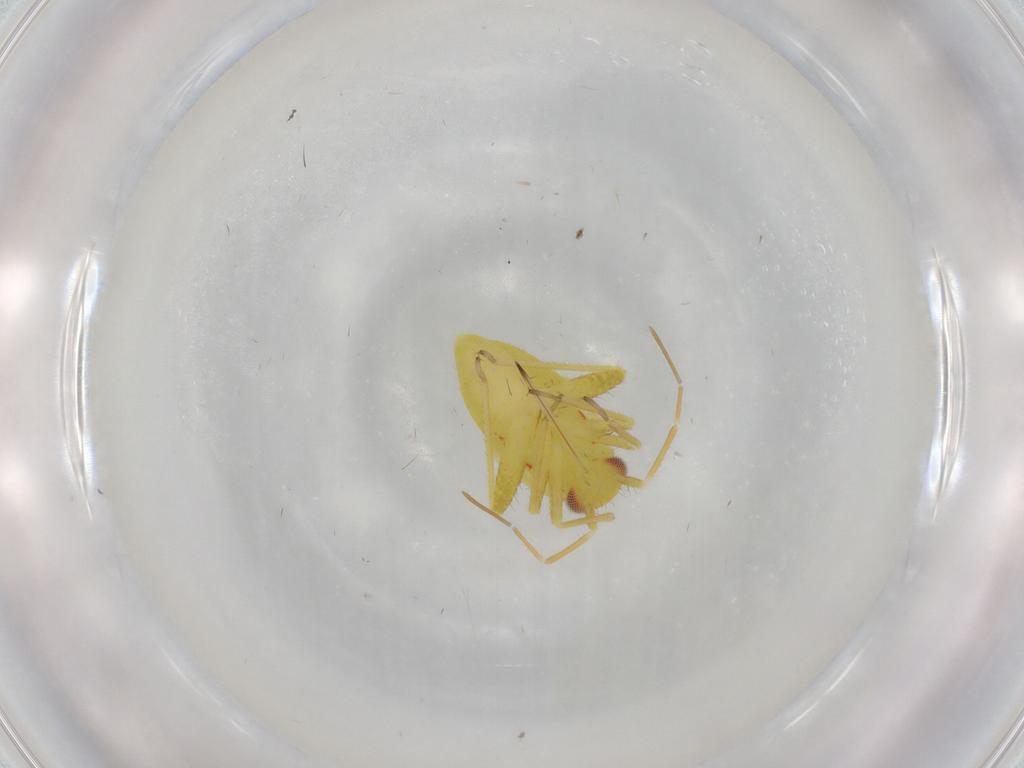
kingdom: Animalia
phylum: Arthropoda
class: Insecta
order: Hemiptera
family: Miridae
